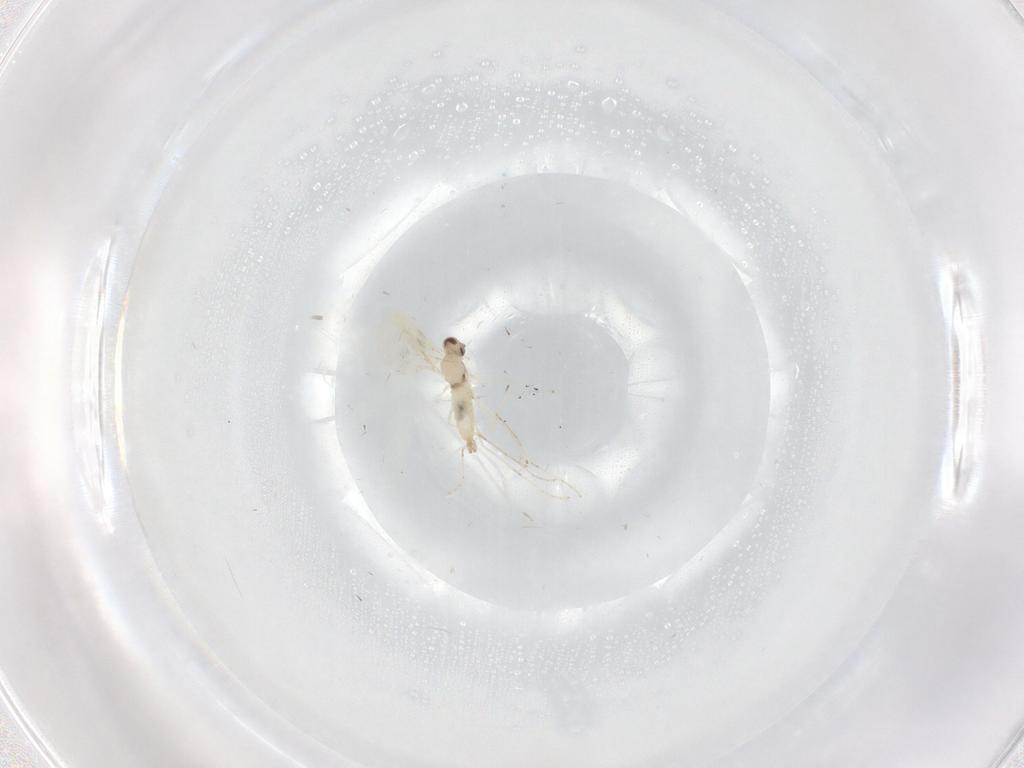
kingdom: Animalia
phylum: Arthropoda
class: Insecta
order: Diptera
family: Cecidomyiidae
